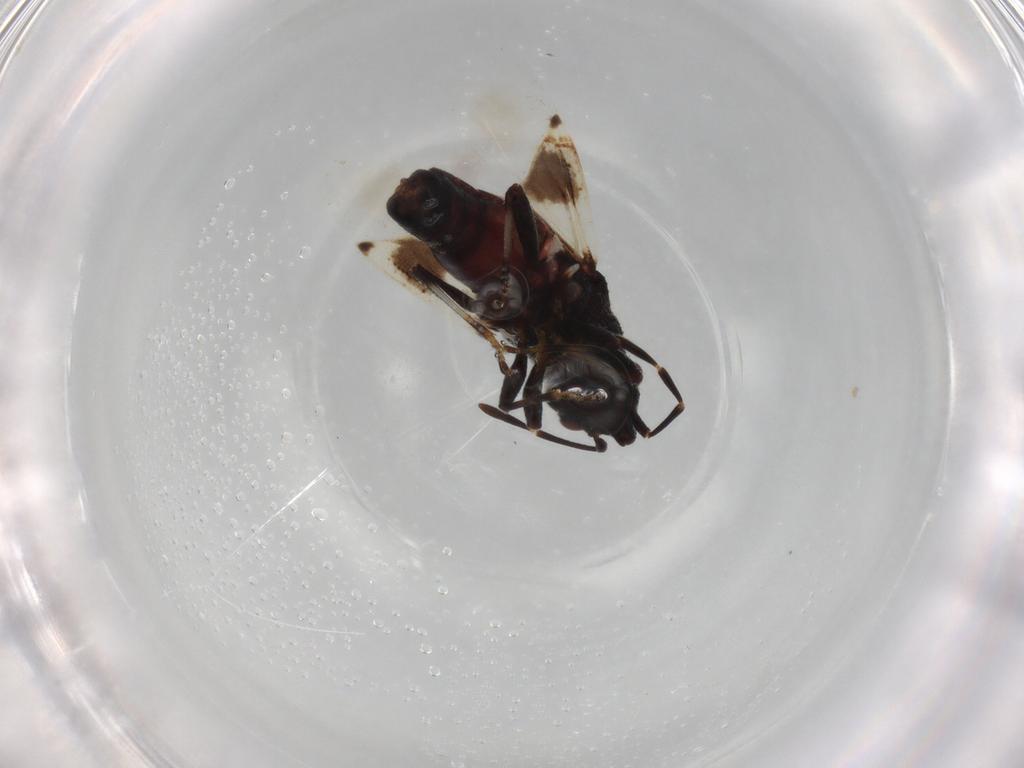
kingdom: Animalia
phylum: Arthropoda
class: Insecta
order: Hemiptera
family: Oxycarenidae
